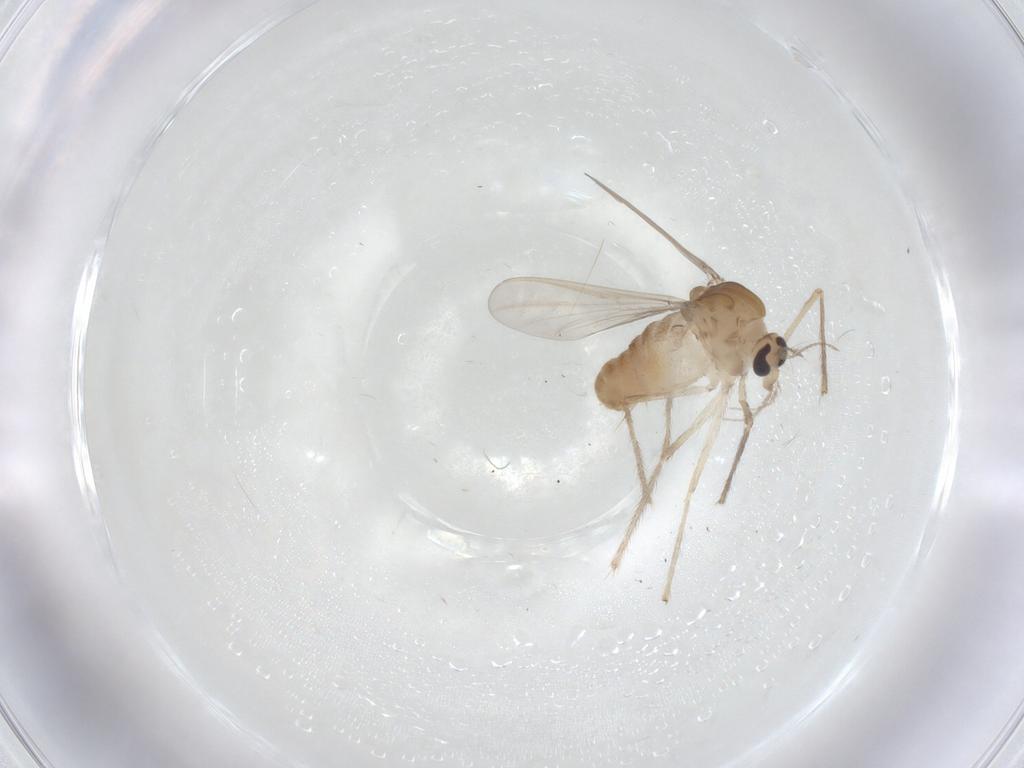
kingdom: Animalia
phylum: Arthropoda
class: Insecta
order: Diptera
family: Chironomidae
